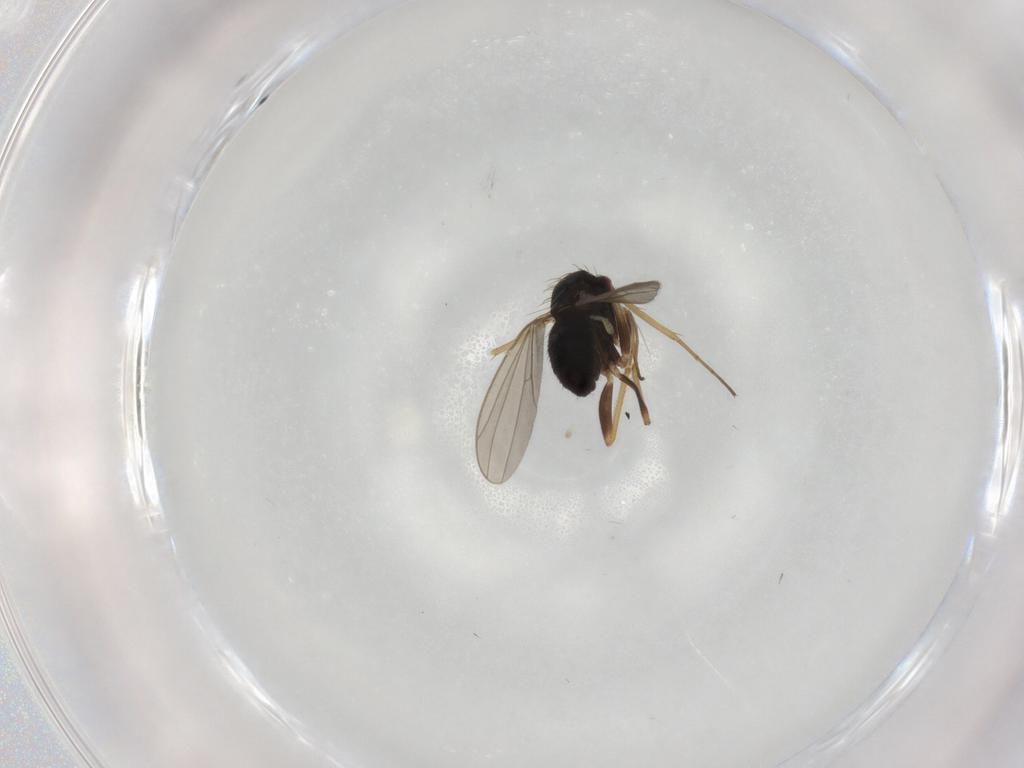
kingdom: Animalia
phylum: Arthropoda
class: Insecta
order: Diptera
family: Dolichopodidae
